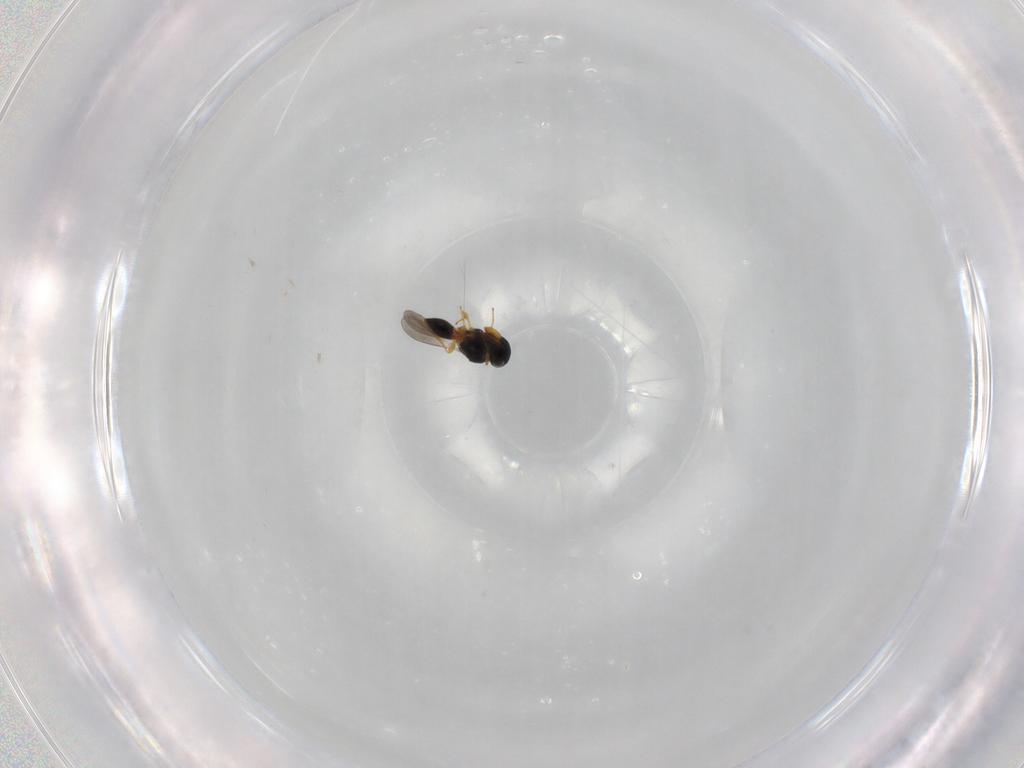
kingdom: Animalia
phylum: Arthropoda
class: Insecta
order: Hymenoptera
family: Platygastridae
